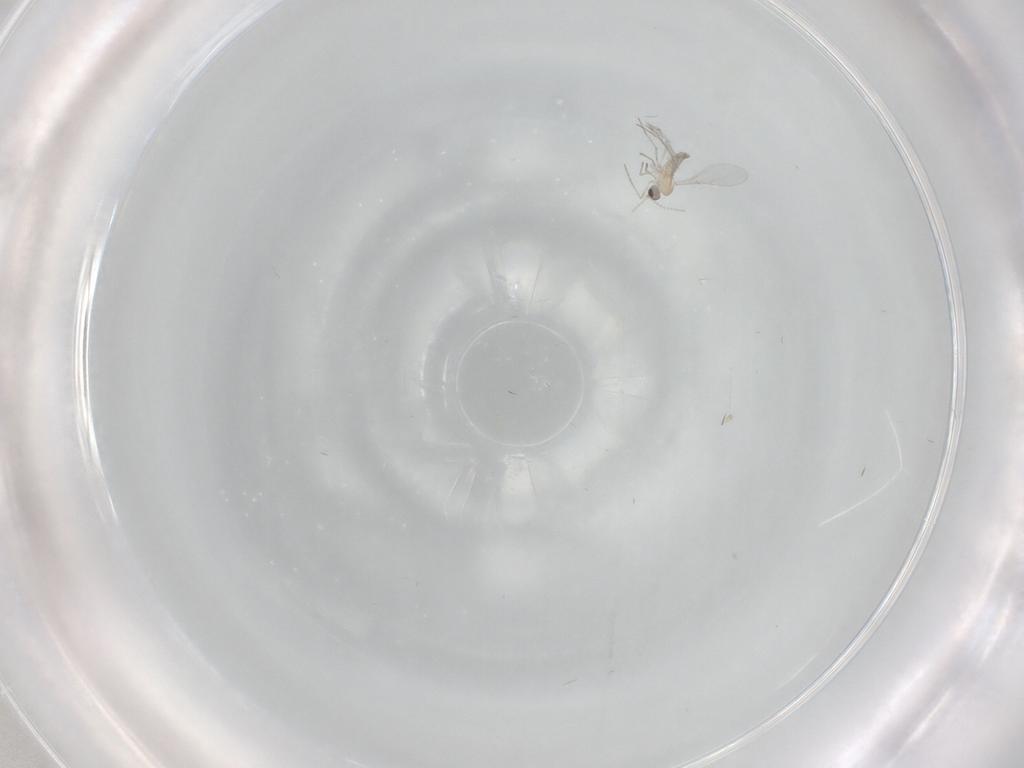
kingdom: Animalia
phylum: Arthropoda
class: Insecta
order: Diptera
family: Cecidomyiidae
